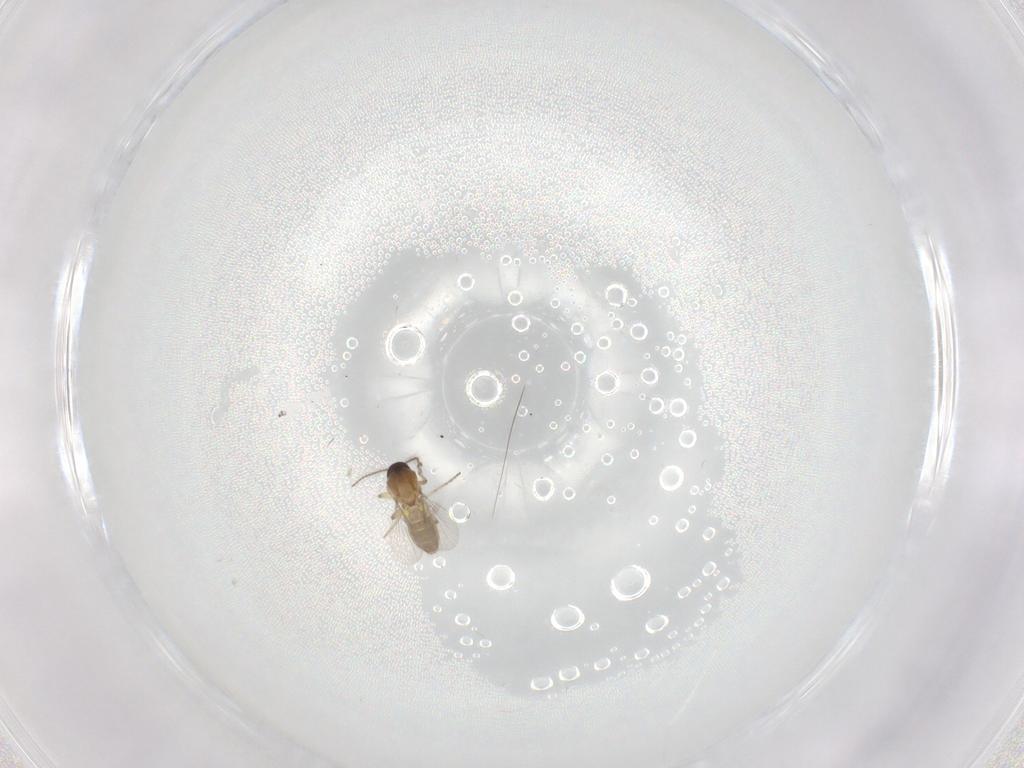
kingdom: Animalia
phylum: Arthropoda
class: Insecta
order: Diptera
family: Ceratopogonidae
